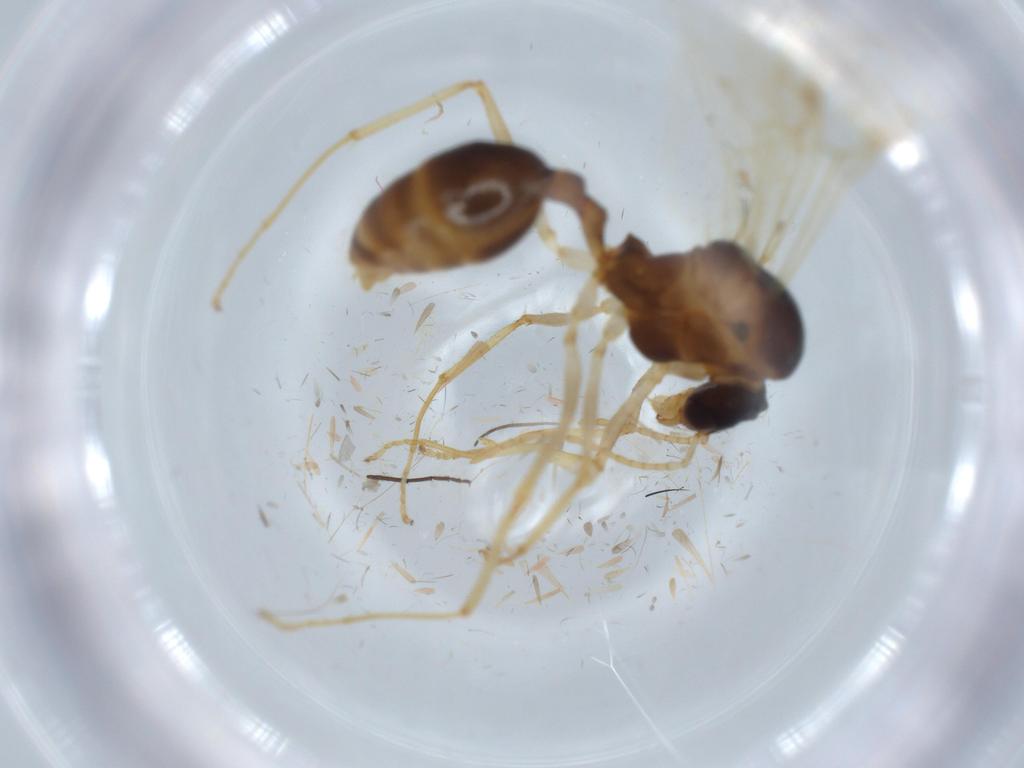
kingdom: Animalia
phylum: Arthropoda
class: Insecta
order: Hymenoptera
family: Formicidae
